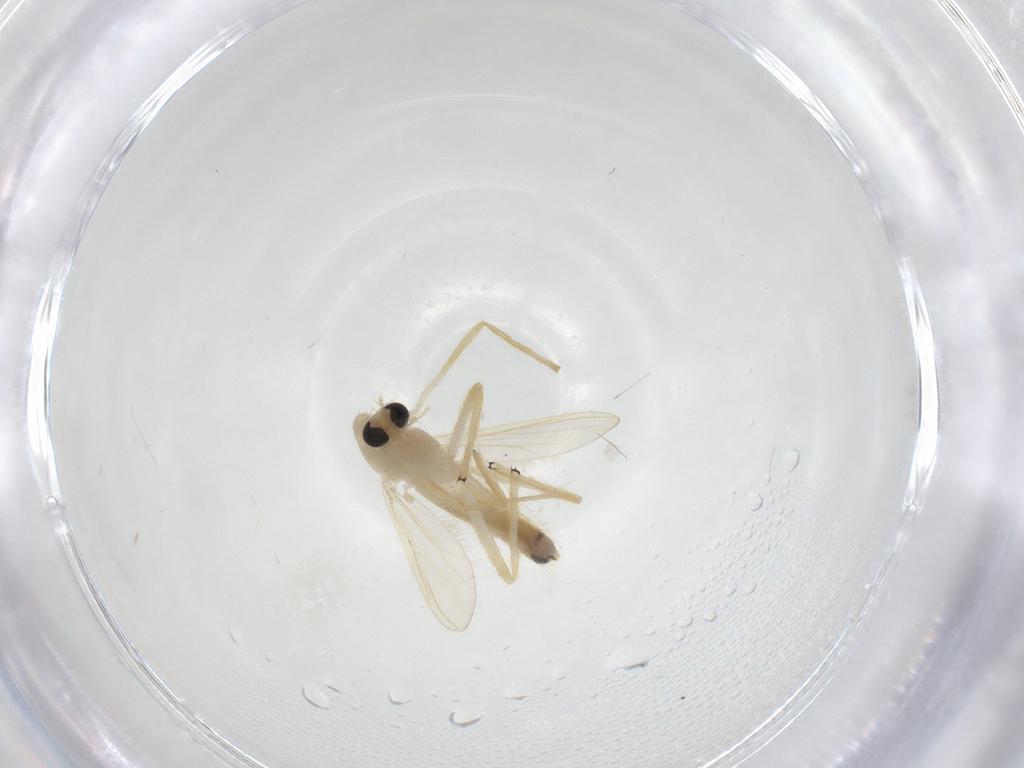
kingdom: Animalia
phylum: Arthropoda
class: Insecta
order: Diptera
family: Chironomidae
